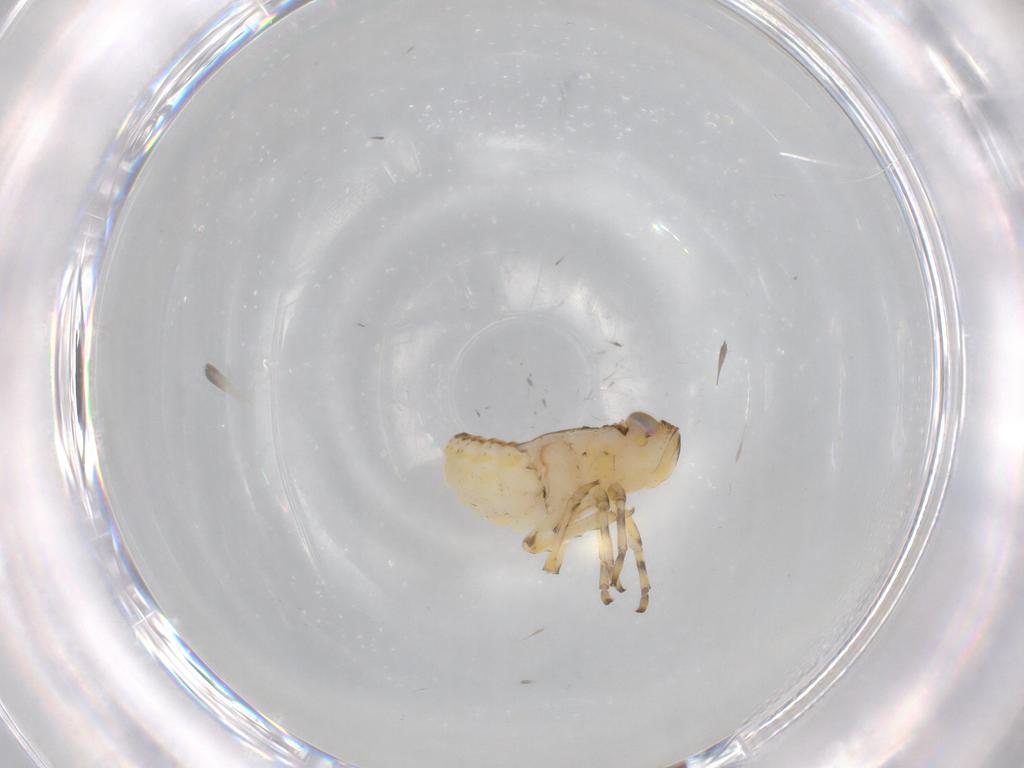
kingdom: Animalia
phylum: Arthropoda
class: Insecta
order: Hemiptera
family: Issidae
